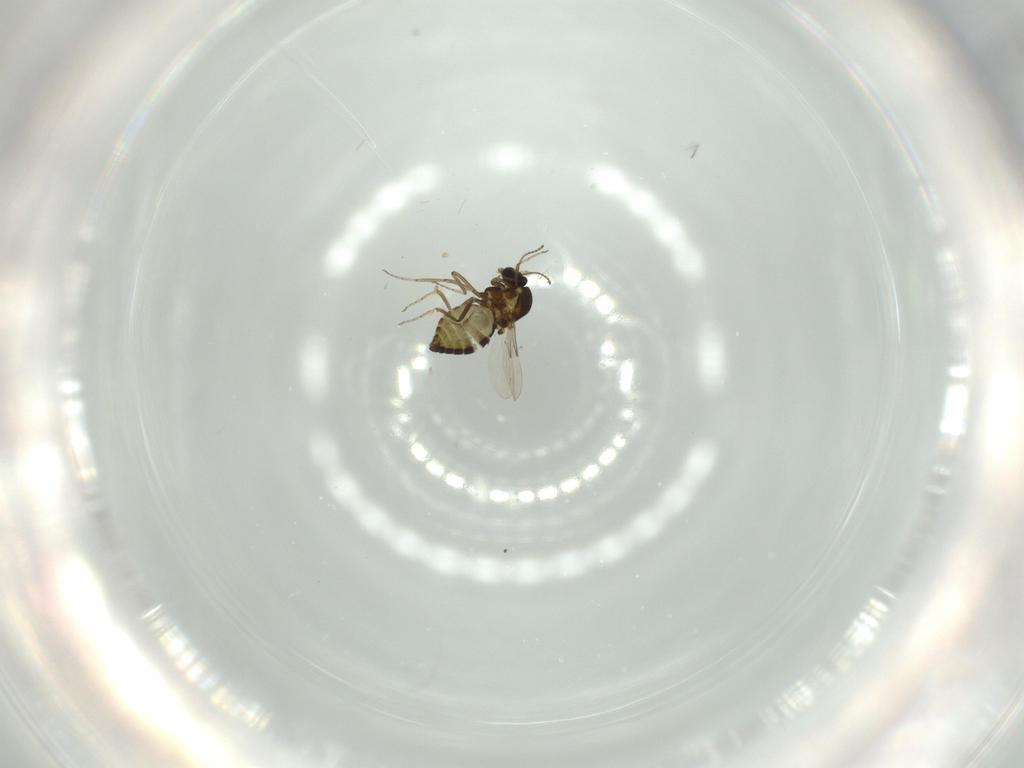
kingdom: Animalia
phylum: Arthropoda
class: Insecta
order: Diptera
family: Ceratopogonidae
